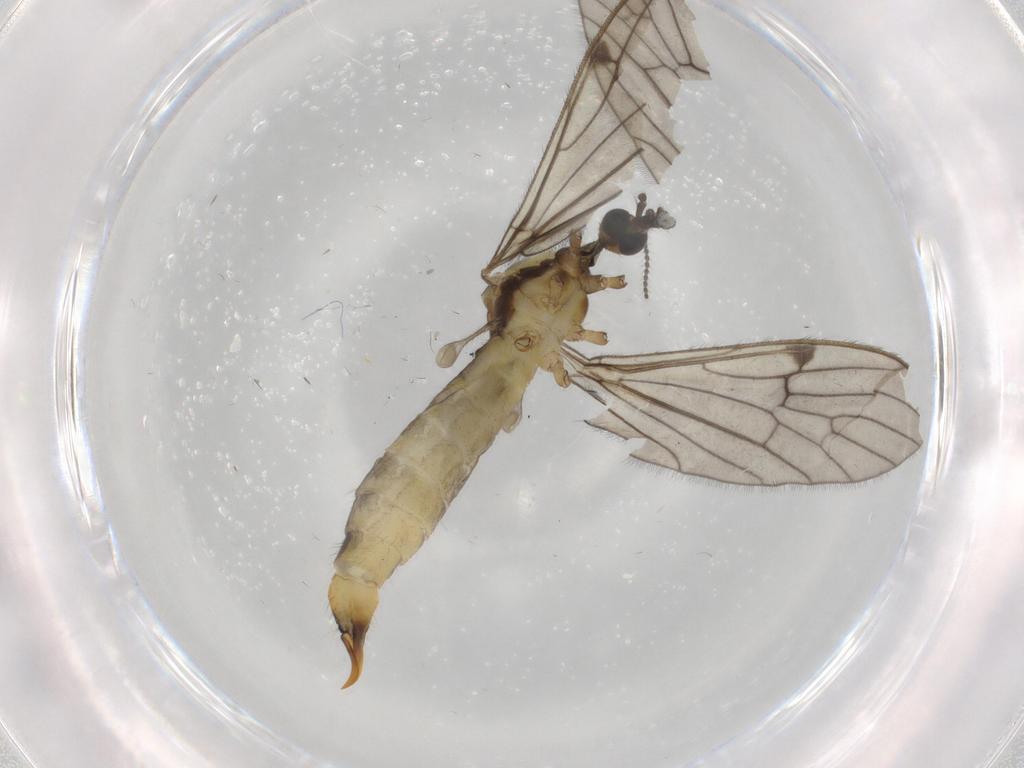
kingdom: Animalia
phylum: Arthropoda
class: Insecta
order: Diptera
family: Limoniidae
